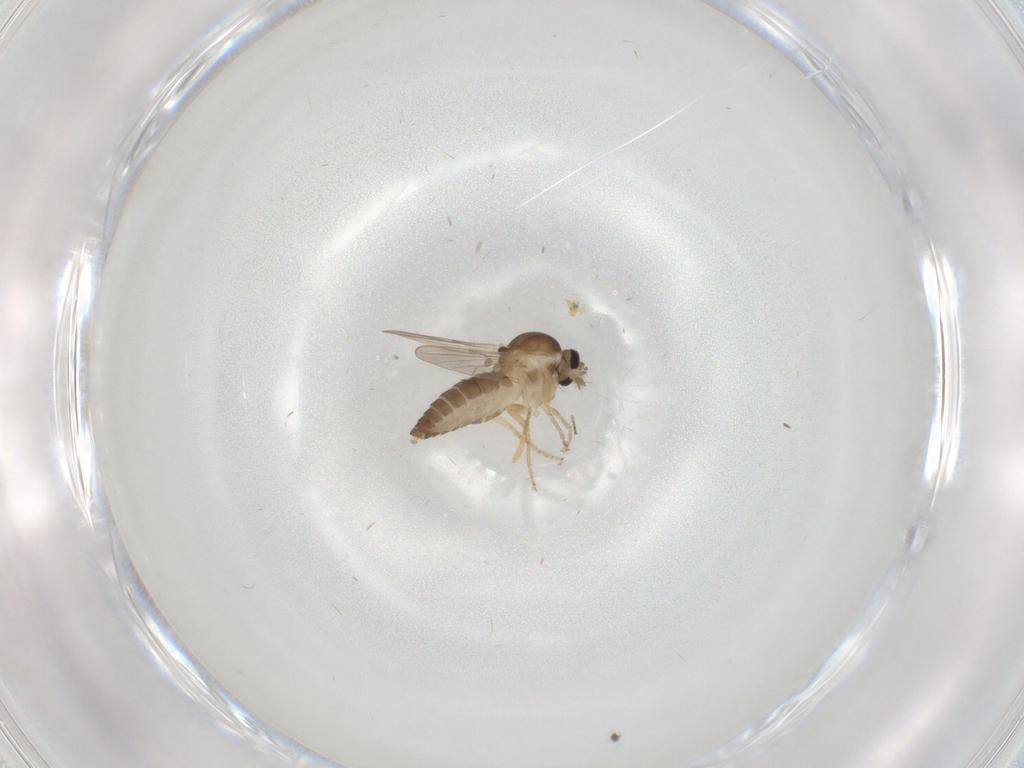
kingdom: Animalia
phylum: Arthropoda
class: Insecta
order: Diptera
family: Ceratopogonidae
